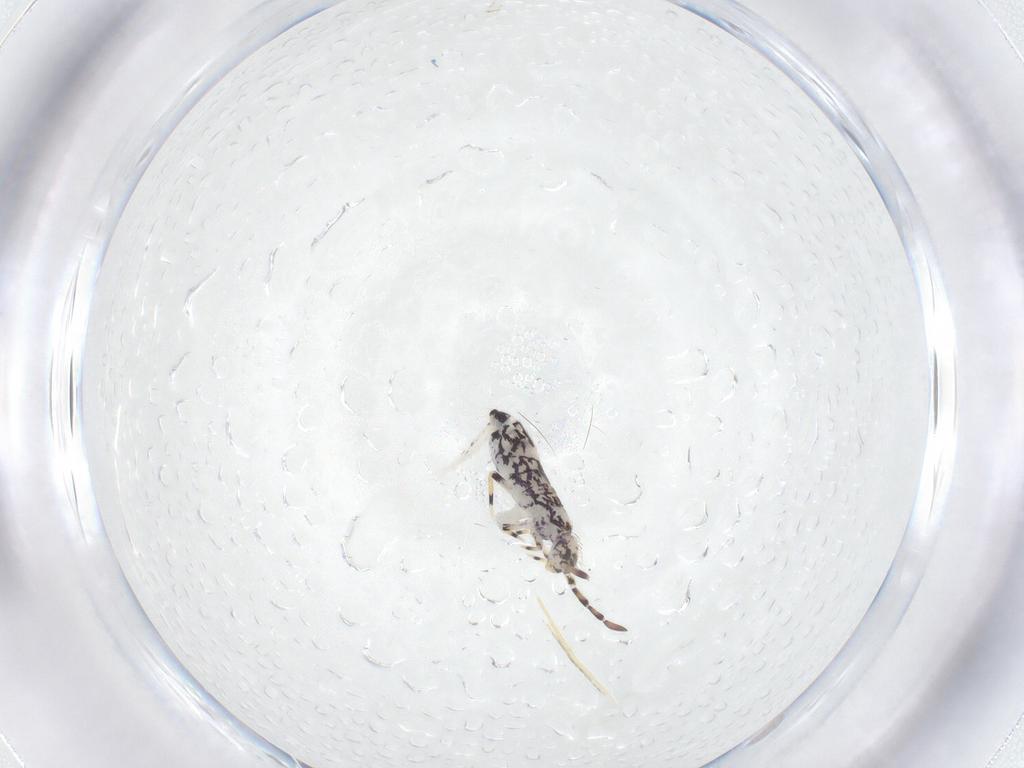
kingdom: Animalia
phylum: Arthropoda
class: Collembola
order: Entomobryomorpha
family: Entomobryidae
